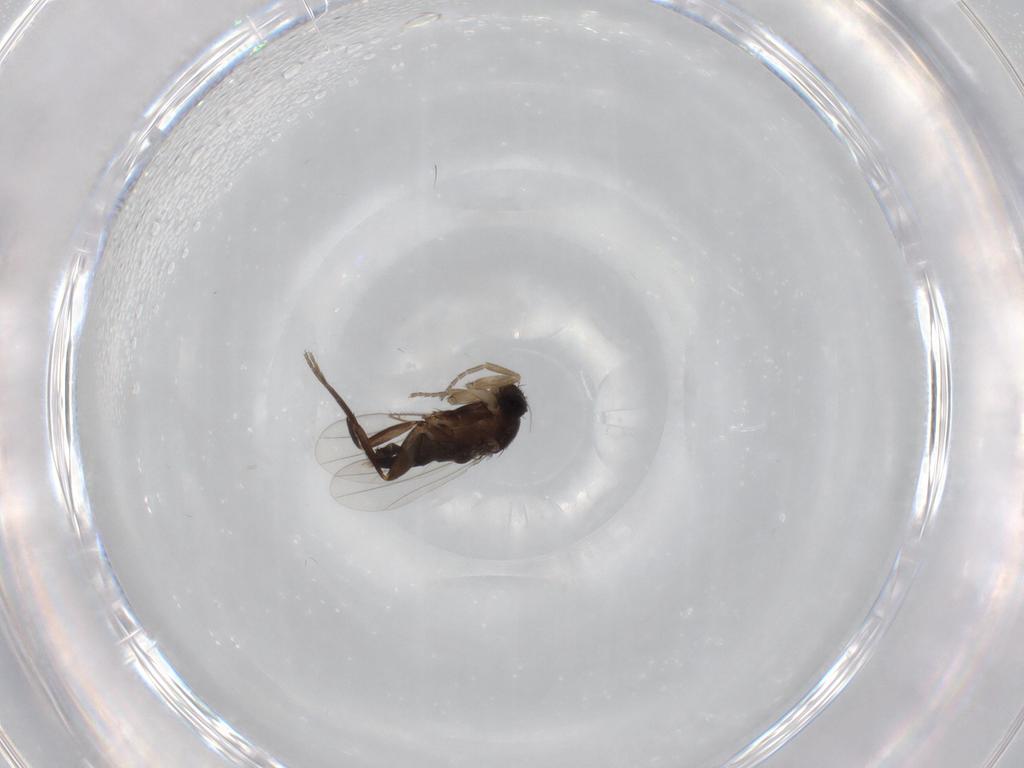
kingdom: Animalia
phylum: Arthropoda
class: Insecta
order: Diptera
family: Phoridae
